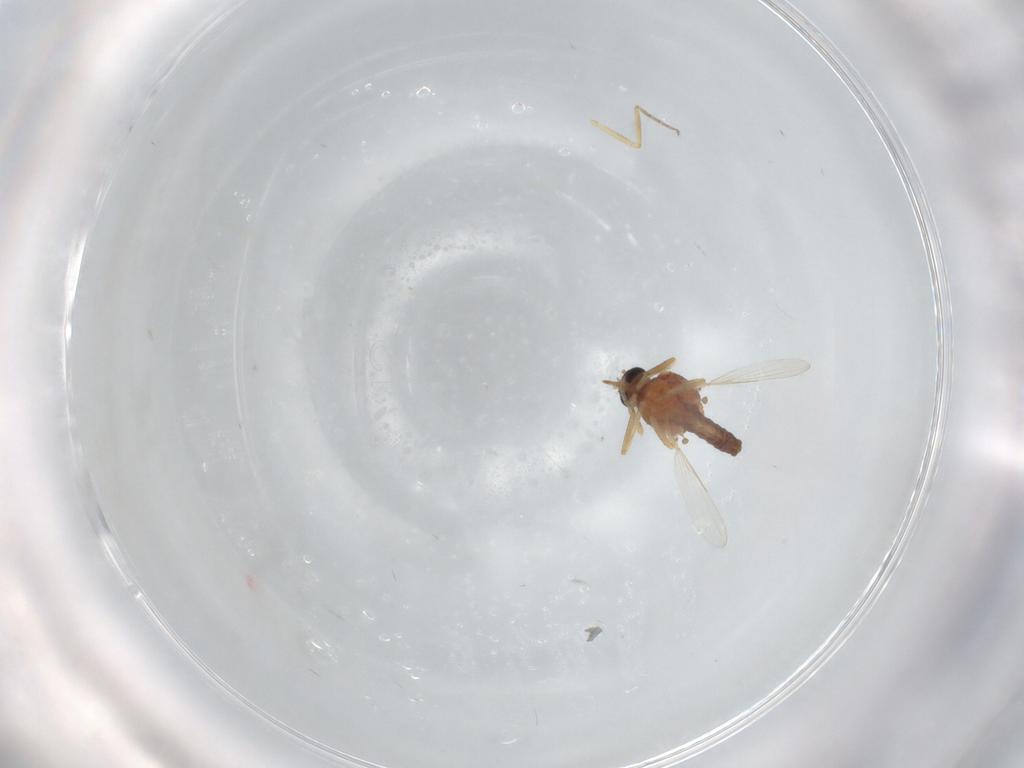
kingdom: Animalia
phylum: Arthropoda
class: Insecta
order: Diptera
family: Ceratopogonidae
